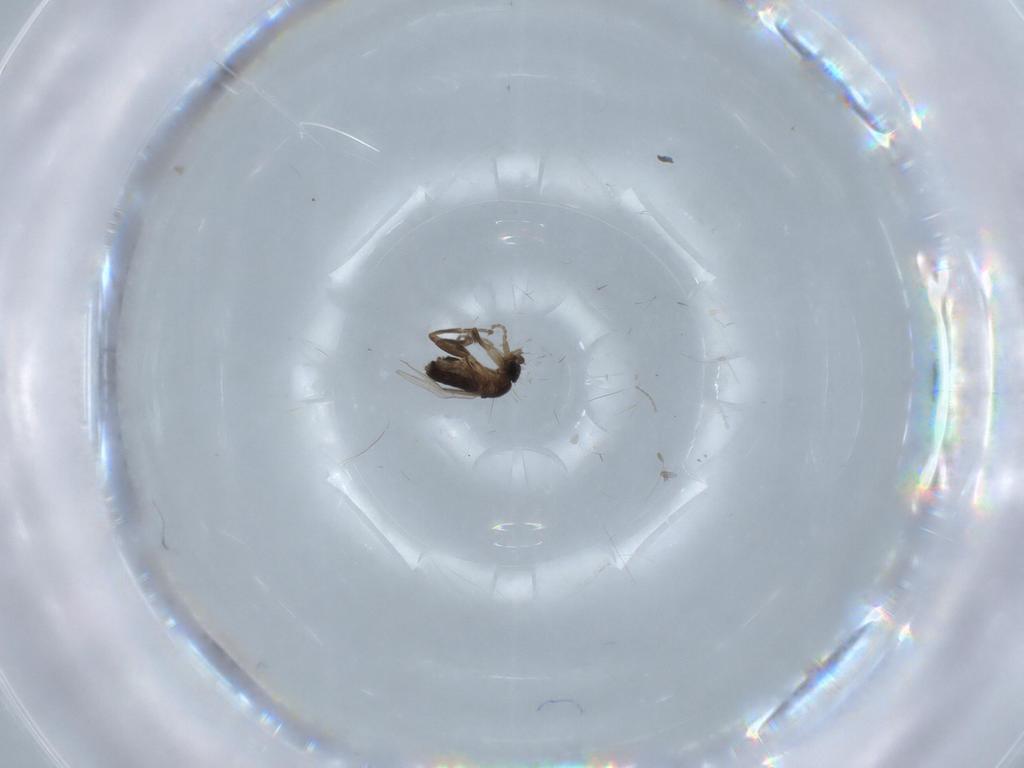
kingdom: Animalia
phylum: Arthropoda
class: Insecta
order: Diptera
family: Phoridae
